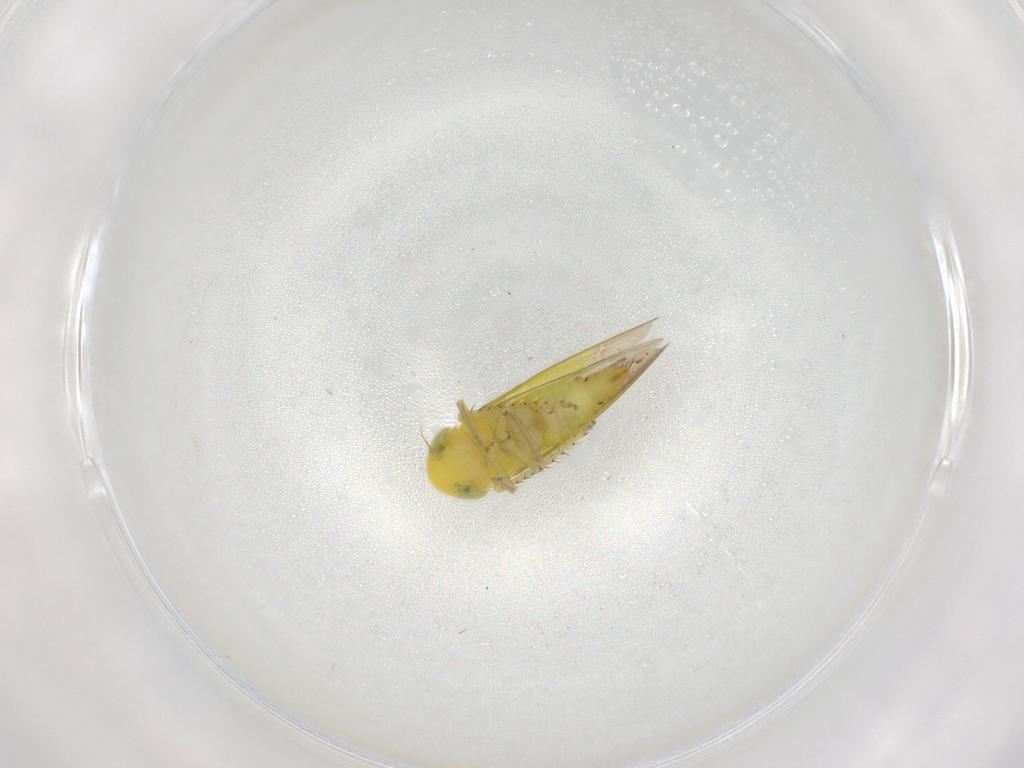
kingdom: Animalia
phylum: Arthropoda
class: Insecta
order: Hemiptera
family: Cicadellidae
